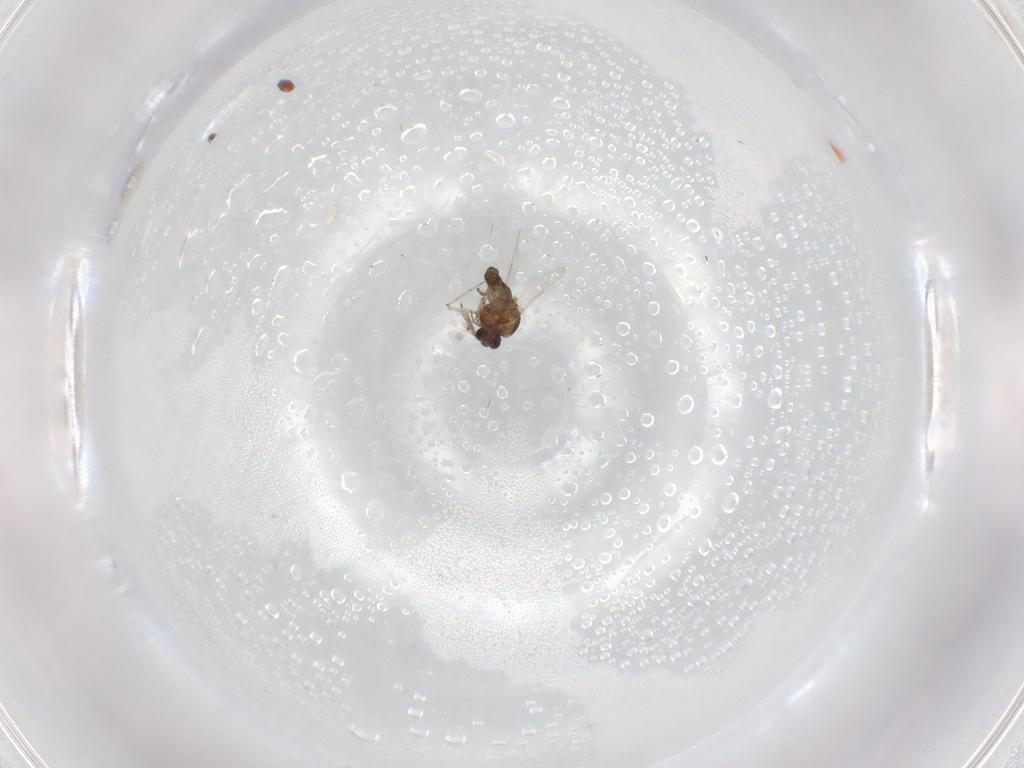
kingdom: Animalia
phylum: Arthropoda
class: Insecta
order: Diptera
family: Ceratopogonidae
